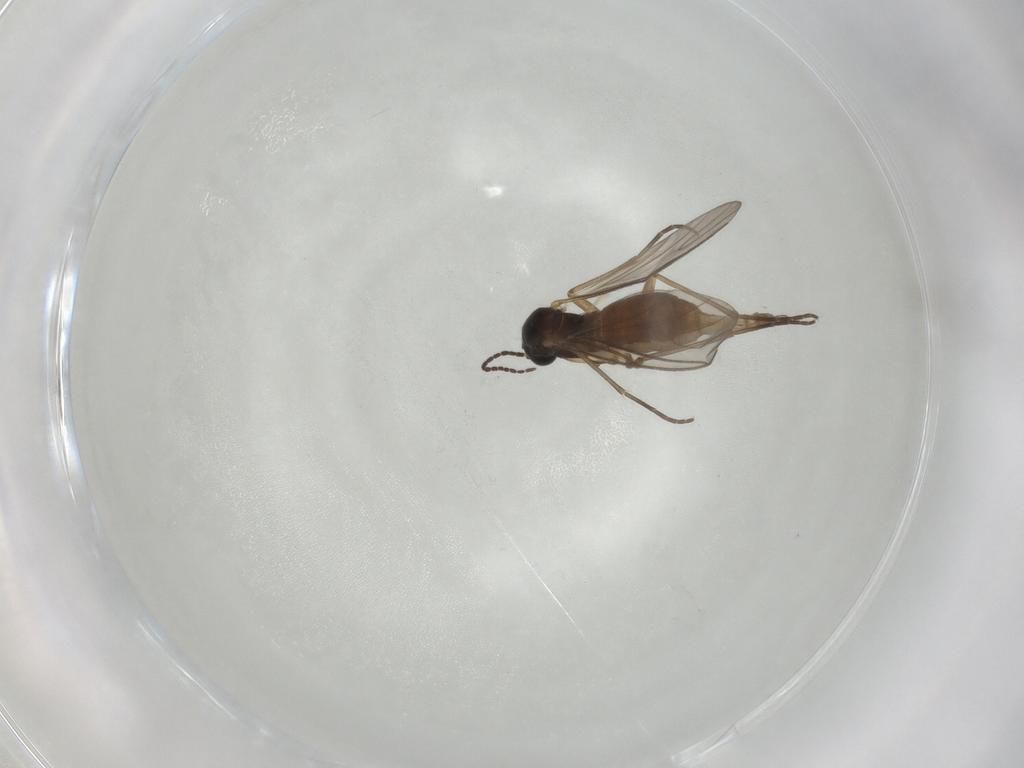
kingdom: Animalia
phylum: Arthropoda
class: Insecta
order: Diptera
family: Sciaridae
